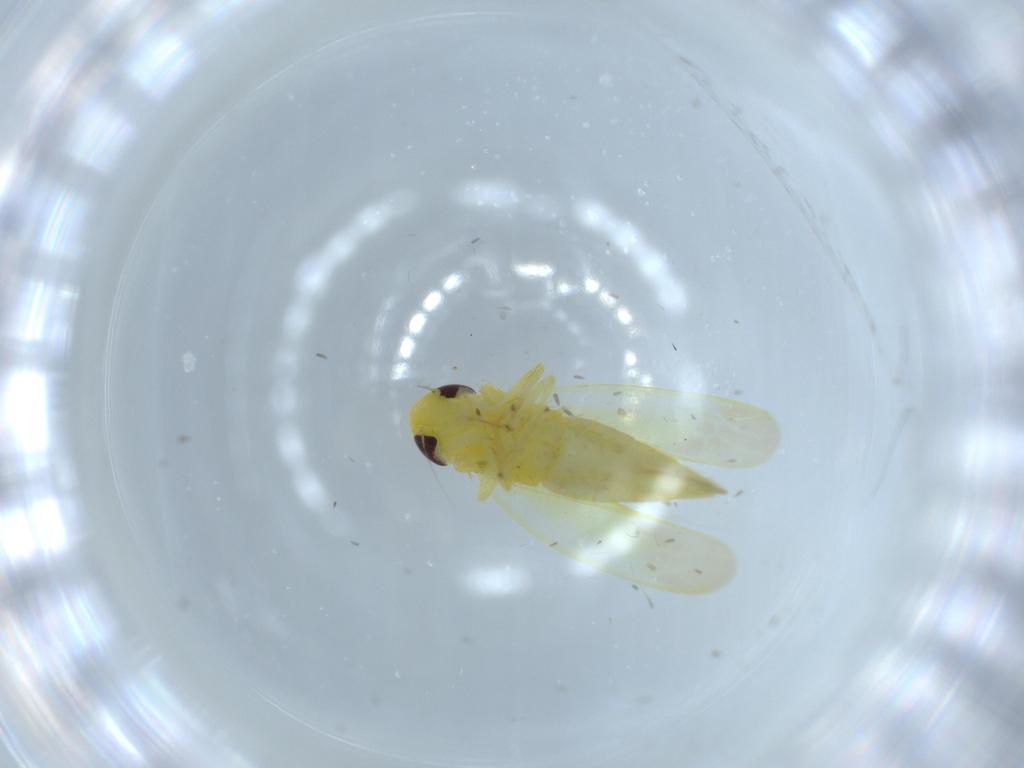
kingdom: Animalia
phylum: Arthropoda
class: Insecta
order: Hemiptera
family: Cicadellidae
